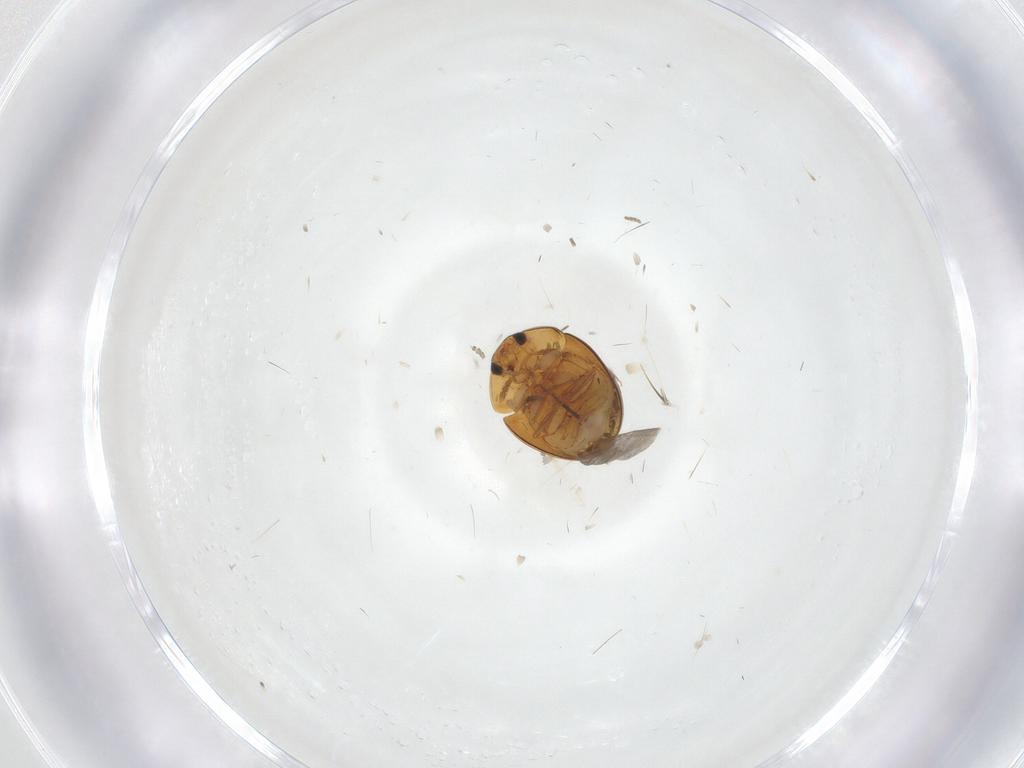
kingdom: Animalia
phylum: Arthropoda
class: Insecta
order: Coleoptera
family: Phalacridae
